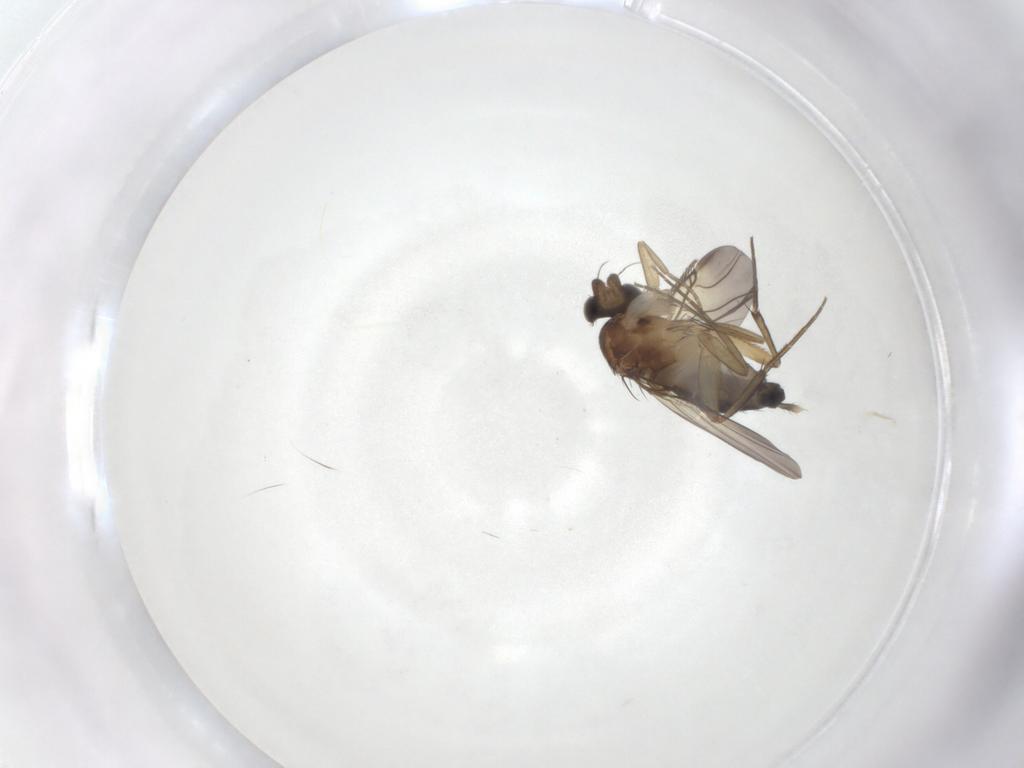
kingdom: Animalia
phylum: Arthropoda
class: Insecta
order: Diptera
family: Phoridae
